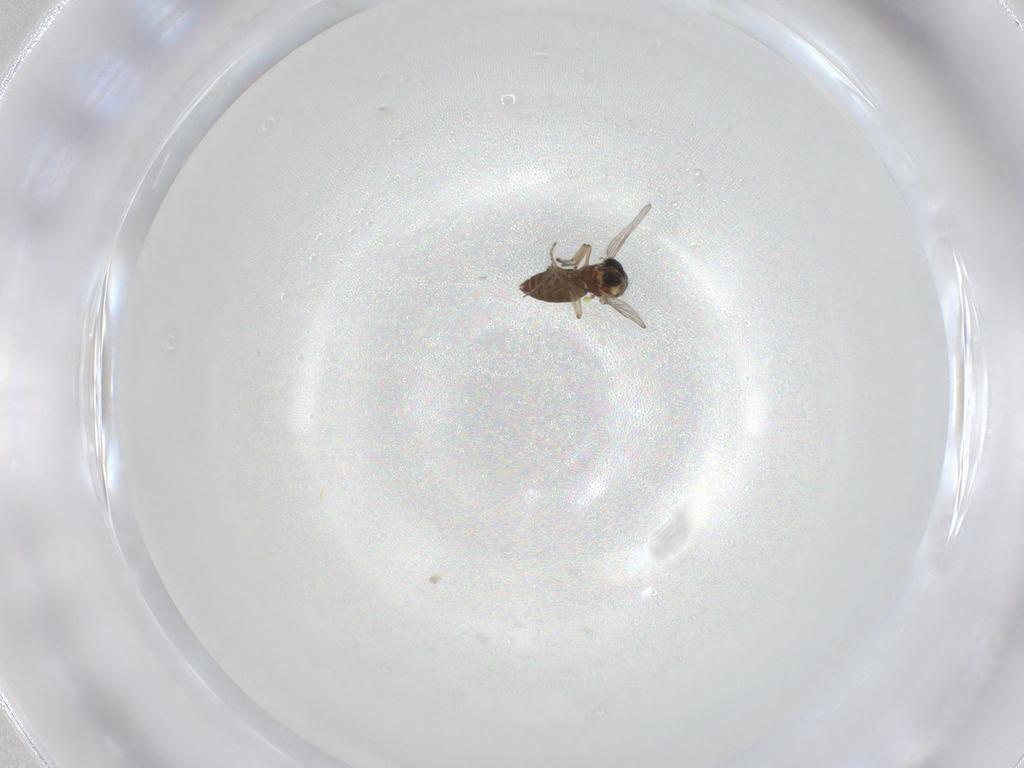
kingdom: Animalia
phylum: Arthropoda
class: Insecta
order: Diptera
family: Cecidomyiidae
